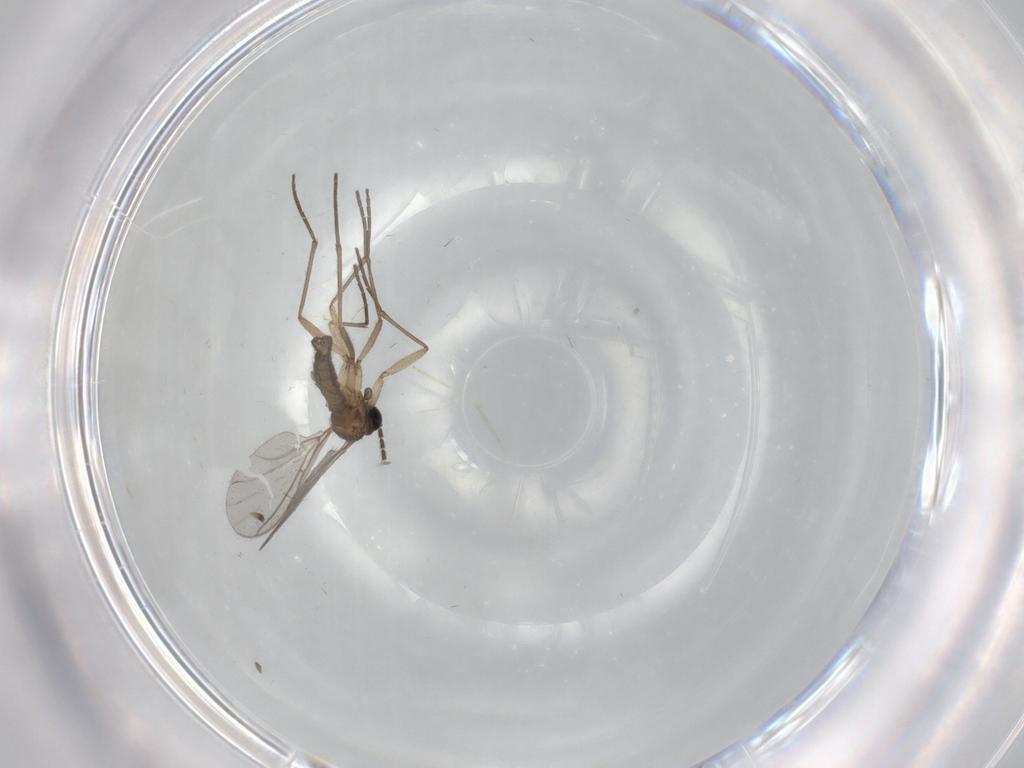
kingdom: Animalia
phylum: Arthropoda
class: Insecta
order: Diptera
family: Sciaridae
